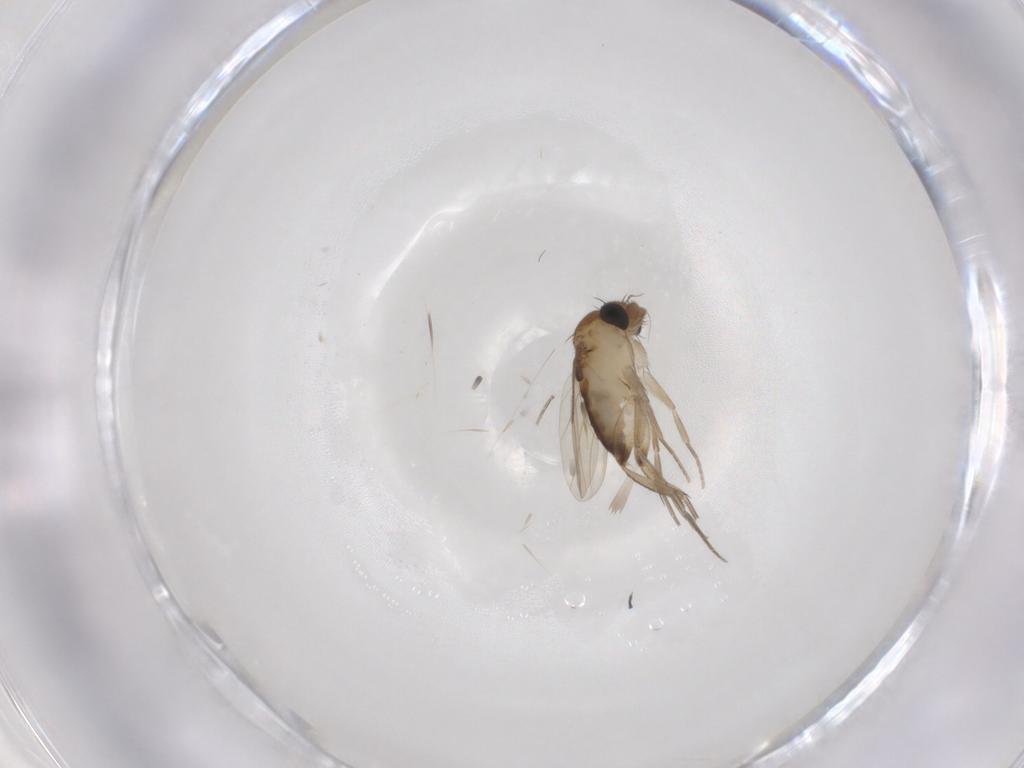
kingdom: Animalia
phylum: Arthropoda
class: Insecta
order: Diptera
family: Phoridae
